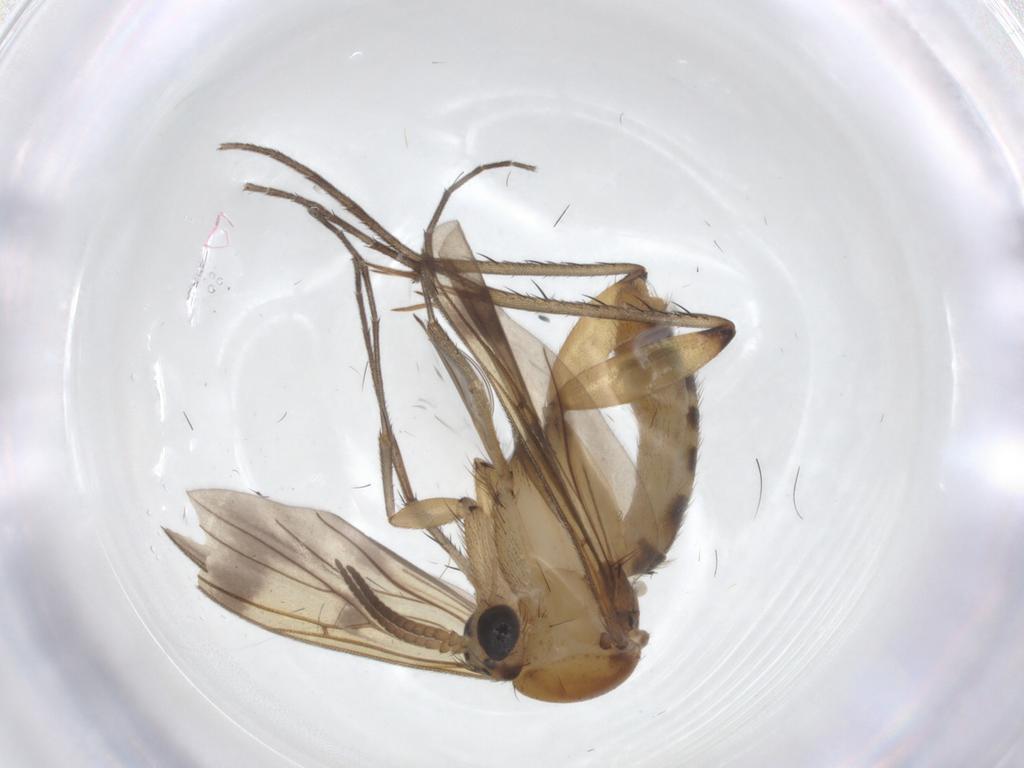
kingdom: Animalia
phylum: Arthropoda
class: Insecta
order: Diptera
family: Mycetophilidae
